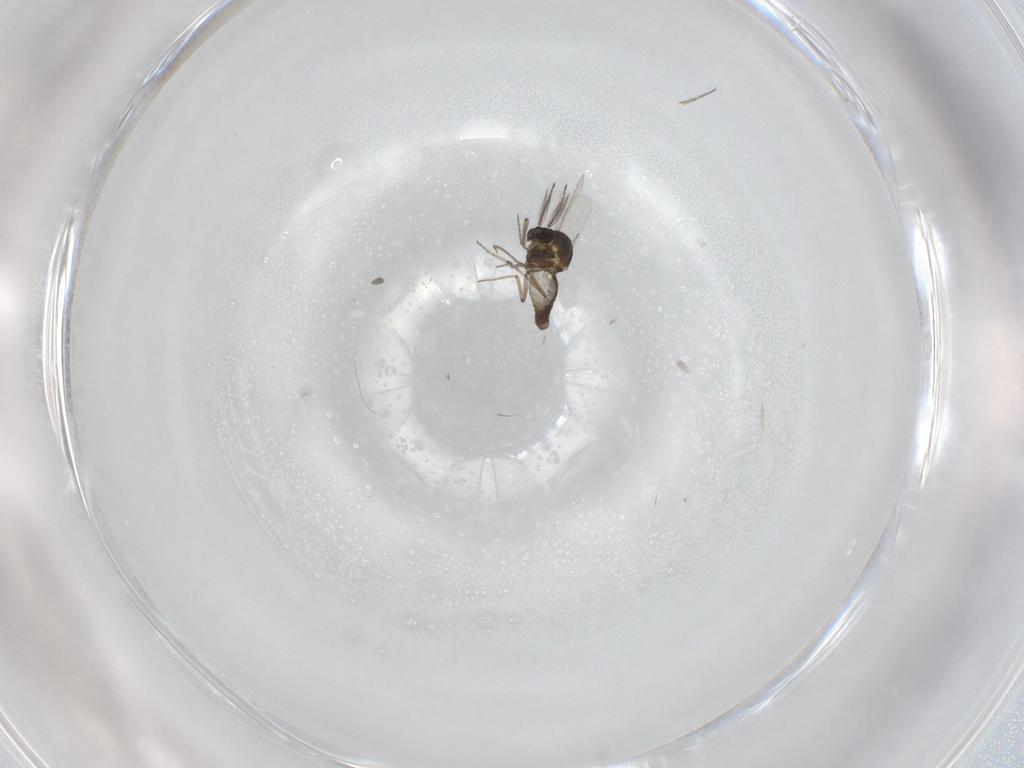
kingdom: Animalia
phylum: Arthropoda
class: Insecta
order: Diptera
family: Ceratopogonidae
